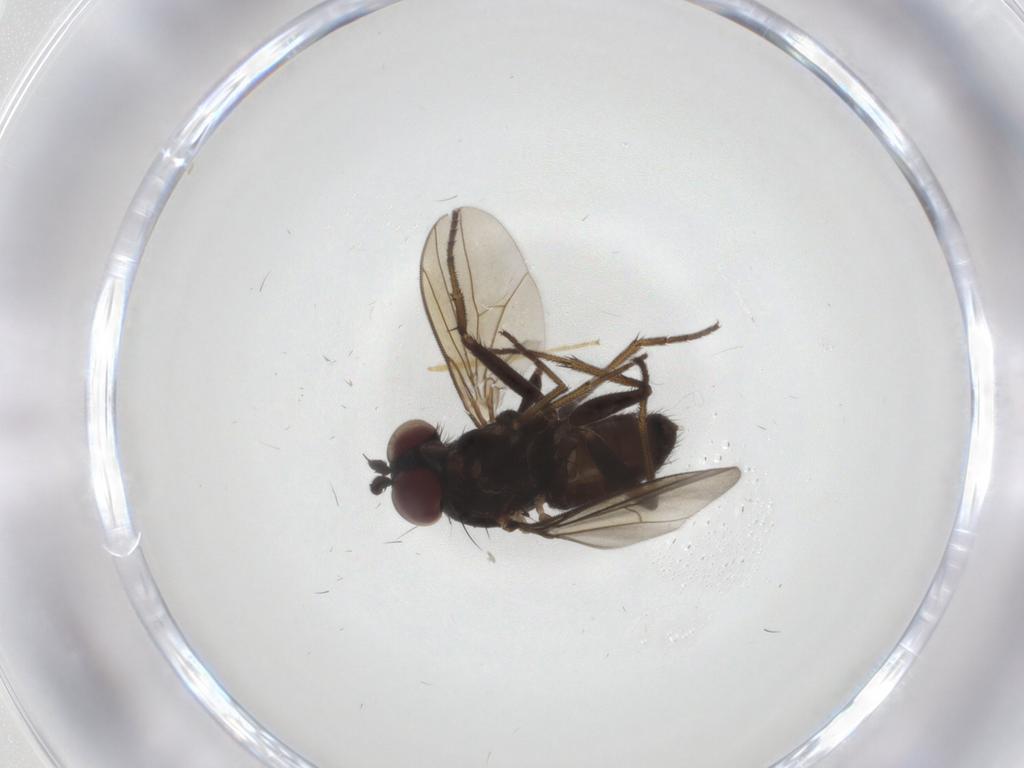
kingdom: Animalia
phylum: Arthropoda
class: Insecta
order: Diptera
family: Dolichopodidae
